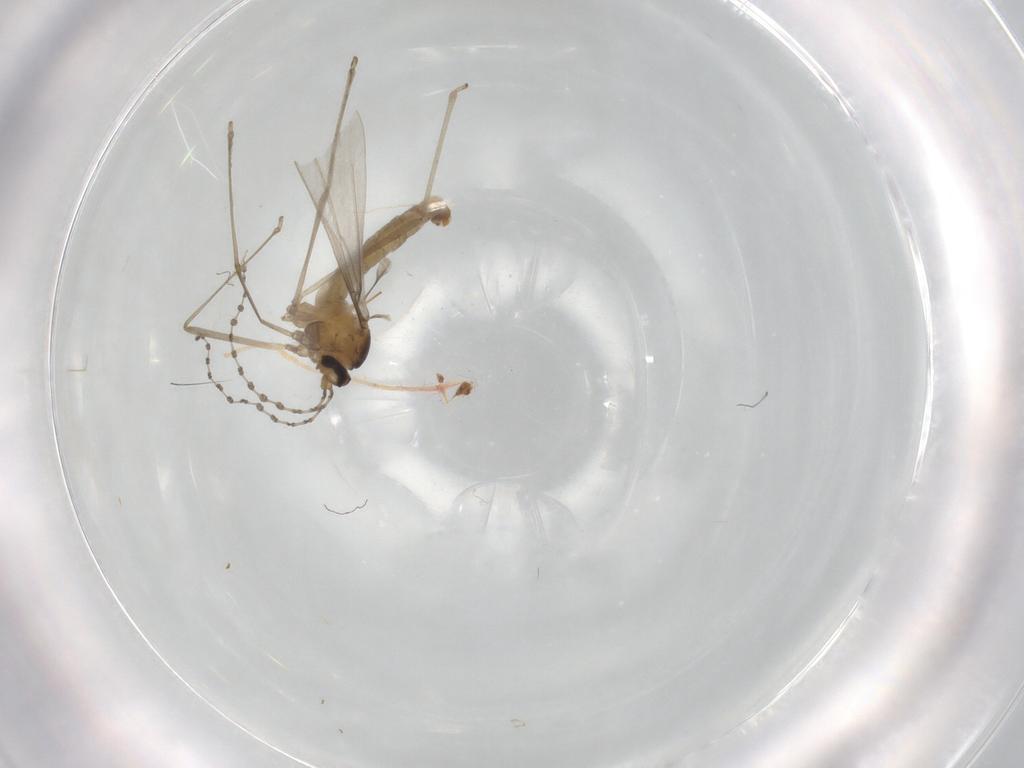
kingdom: Animalia
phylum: Arthropoda
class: Insecta
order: Diptera
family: Cecidomyiidae
